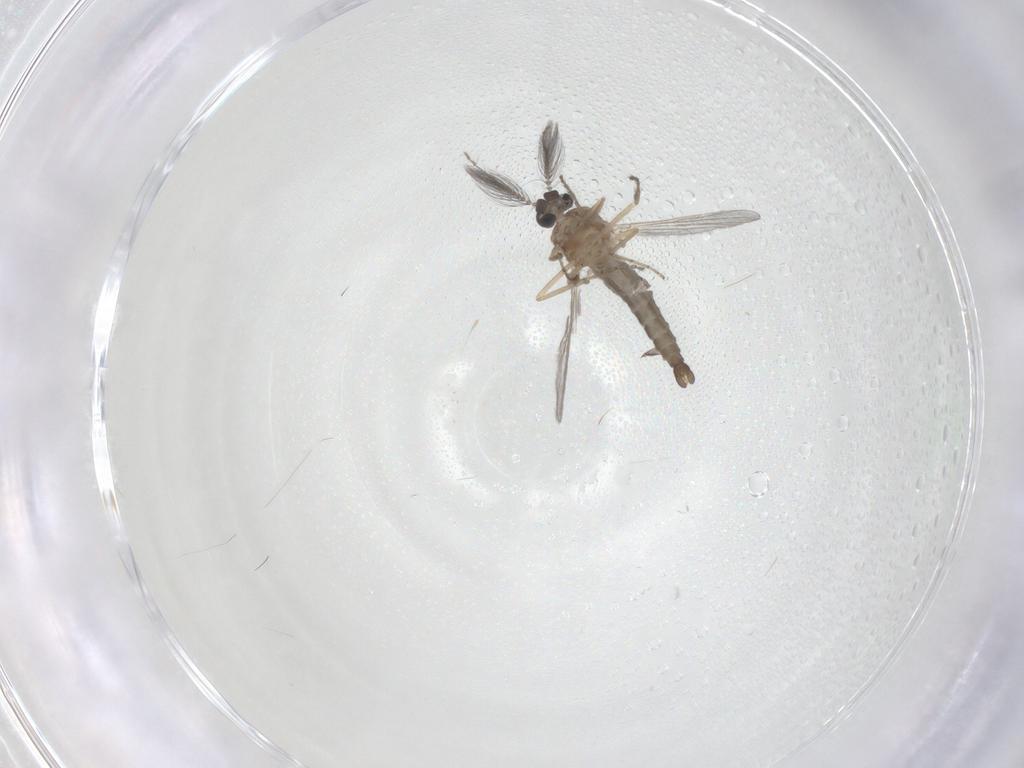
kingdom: Animalia
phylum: Arthropoda
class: Insecta
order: Diptera
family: Ceratopogonidae
